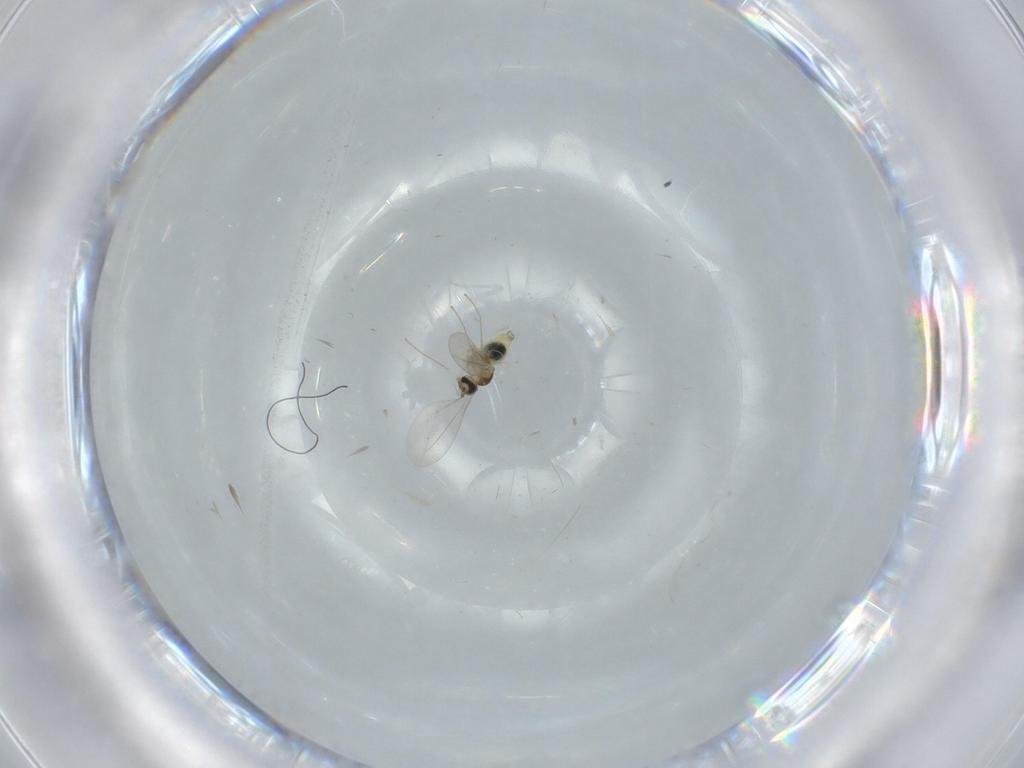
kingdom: Animalia
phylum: Arthropoda
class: Insecta
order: Diptera
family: Cecidomyiidae
